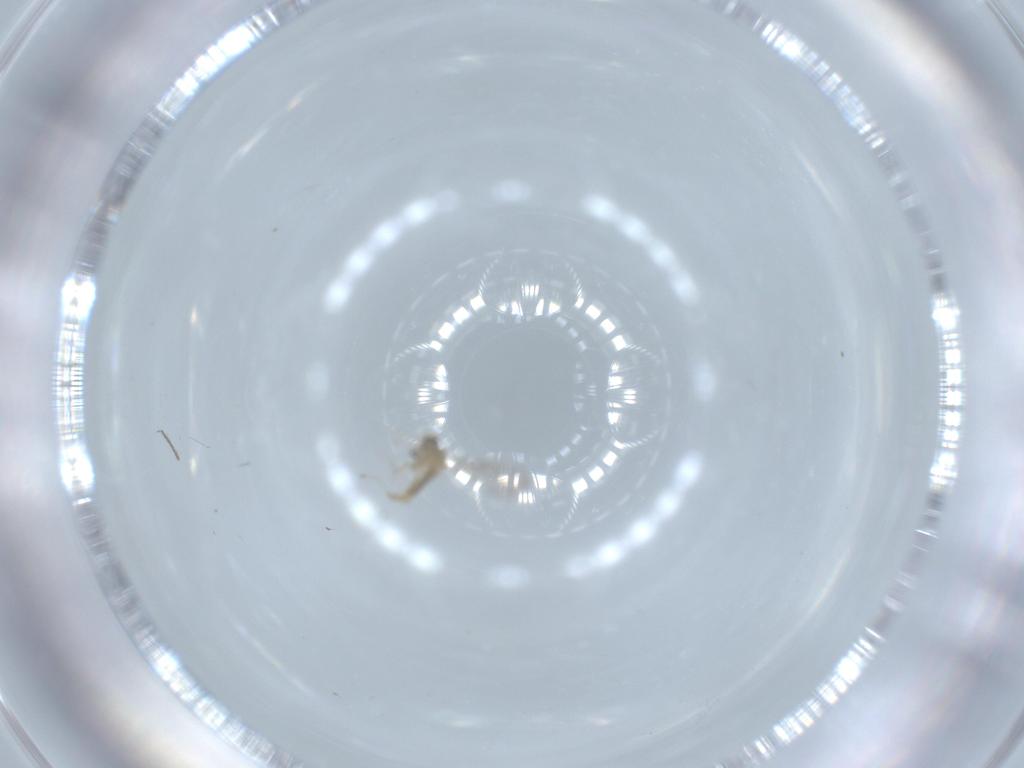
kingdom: Animalia
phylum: Arthropoda
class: Insecta
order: Diptera
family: Cecidomyiidae
